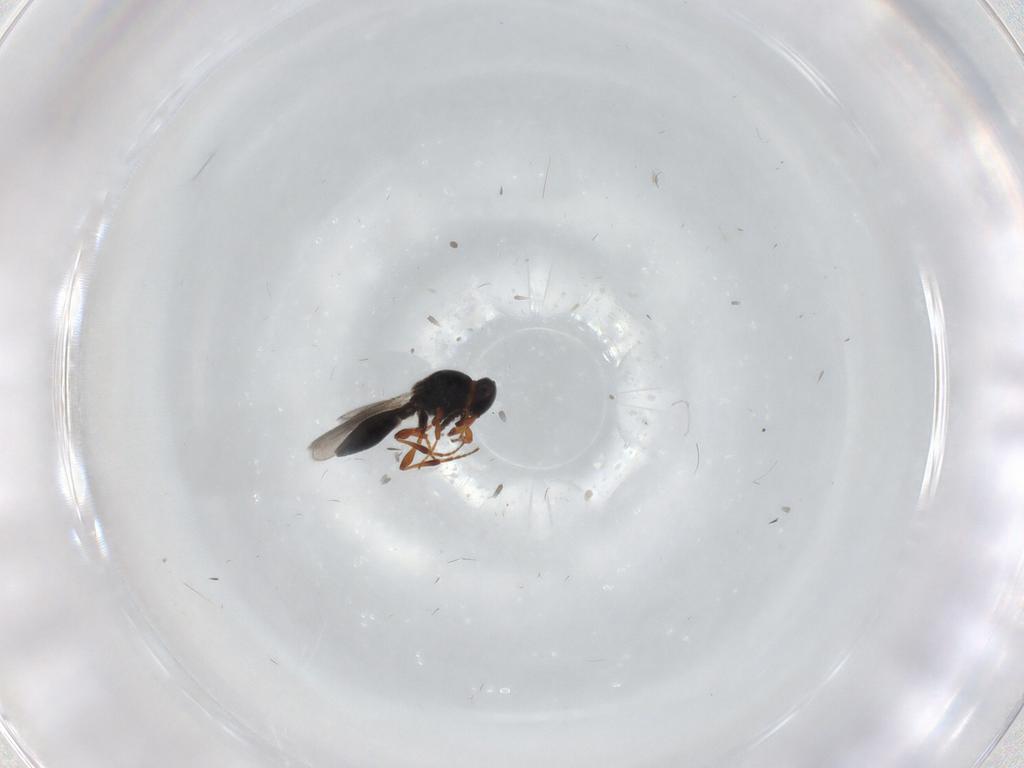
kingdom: Animalia
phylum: Arthropoda
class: Insecta
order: Hymenoptera
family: Platygastridae
